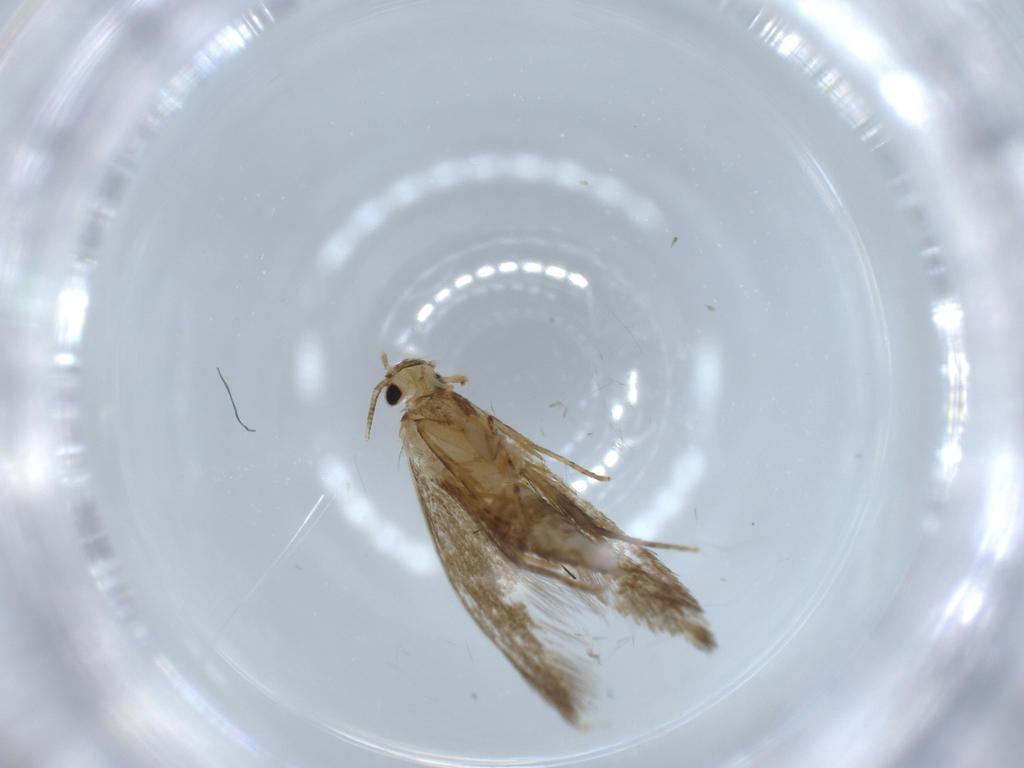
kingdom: Animalia
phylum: Arthropoda
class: Insecta
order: Lepidoptera
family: Tineidae
